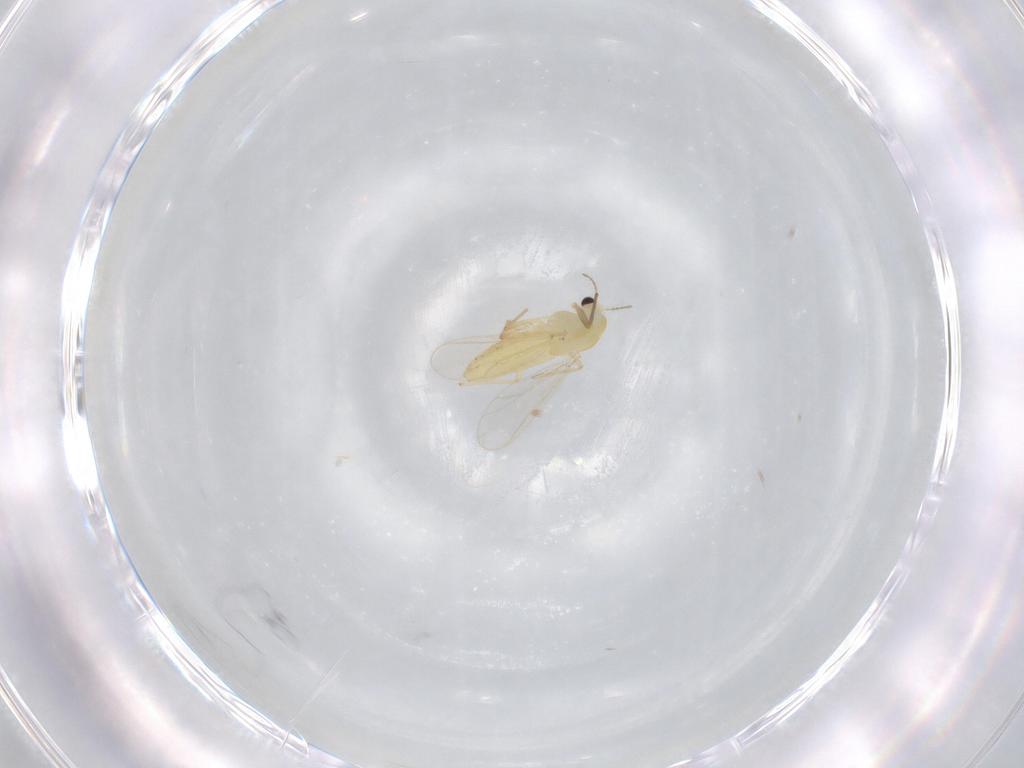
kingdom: Animalia
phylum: Arthropoda
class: Insecta
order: Diptera
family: Chironomidae
